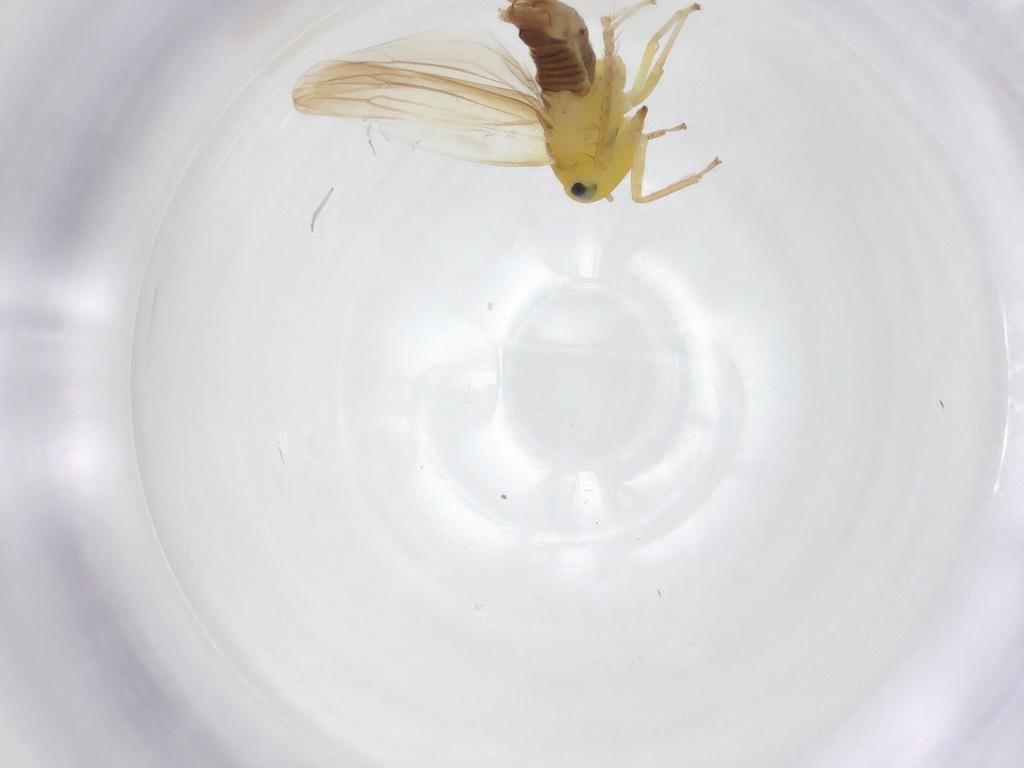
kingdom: Animalia
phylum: Arthropoda
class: Insecta
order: Hemiptera
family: Cicadellidae
